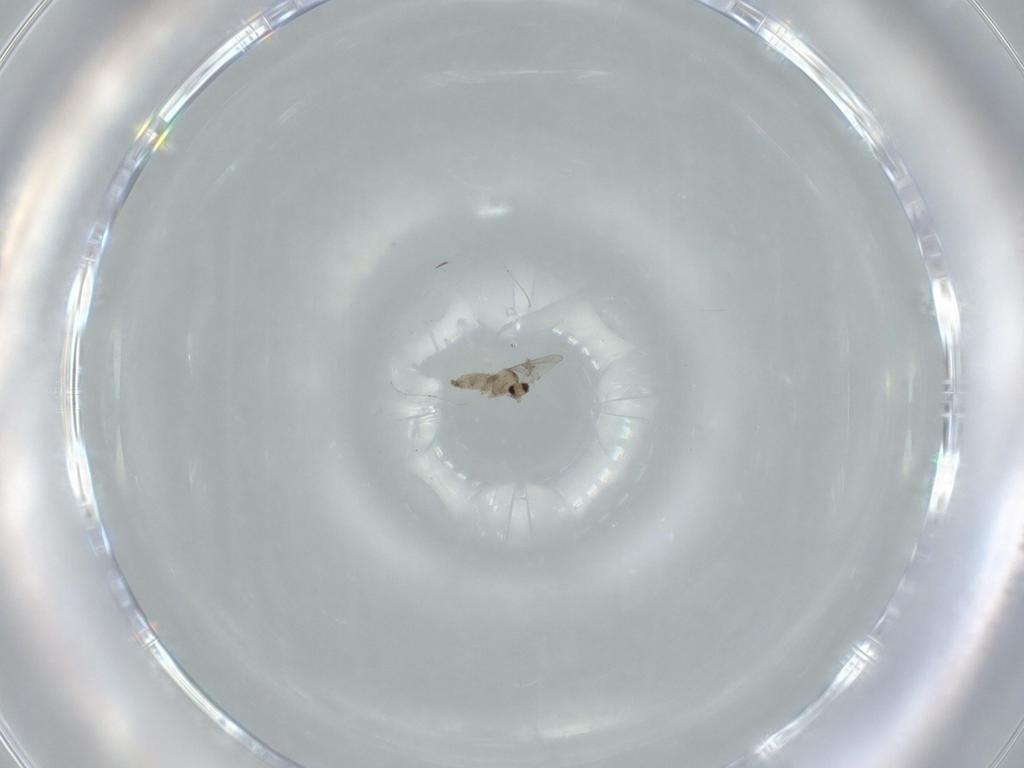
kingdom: Animalia
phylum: Arthropoda
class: Insecta
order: Diptera
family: Cecidomyiidae
